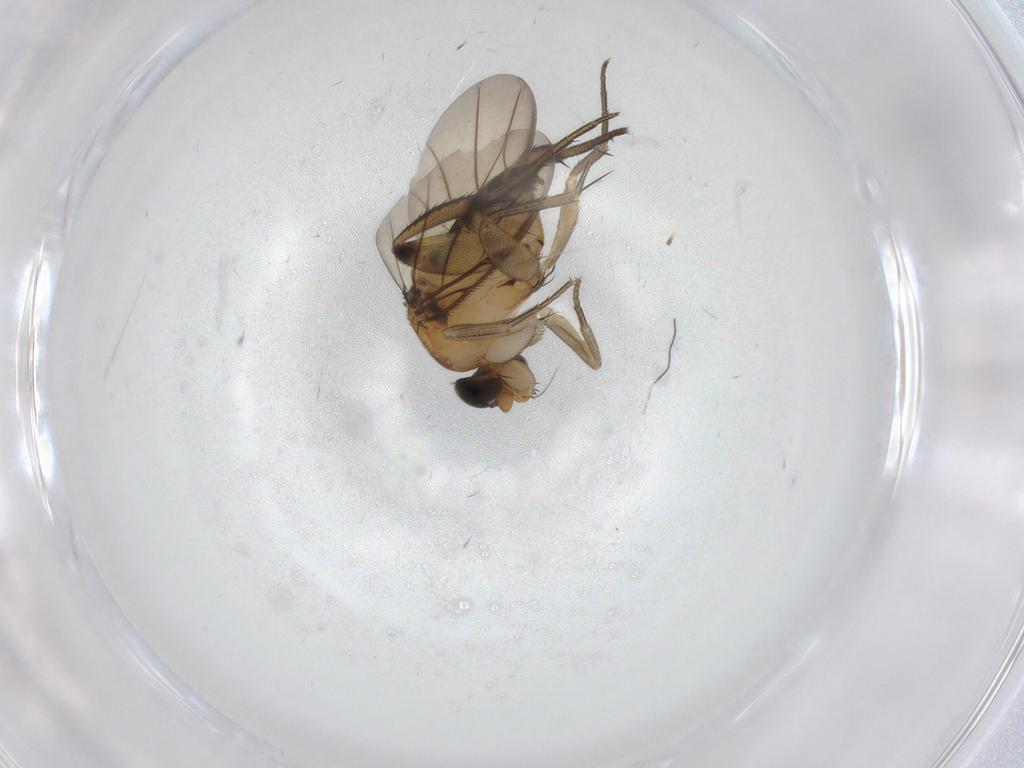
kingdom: Animalia
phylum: Arthropoda
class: Insecta
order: Diptera
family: Phoridae
